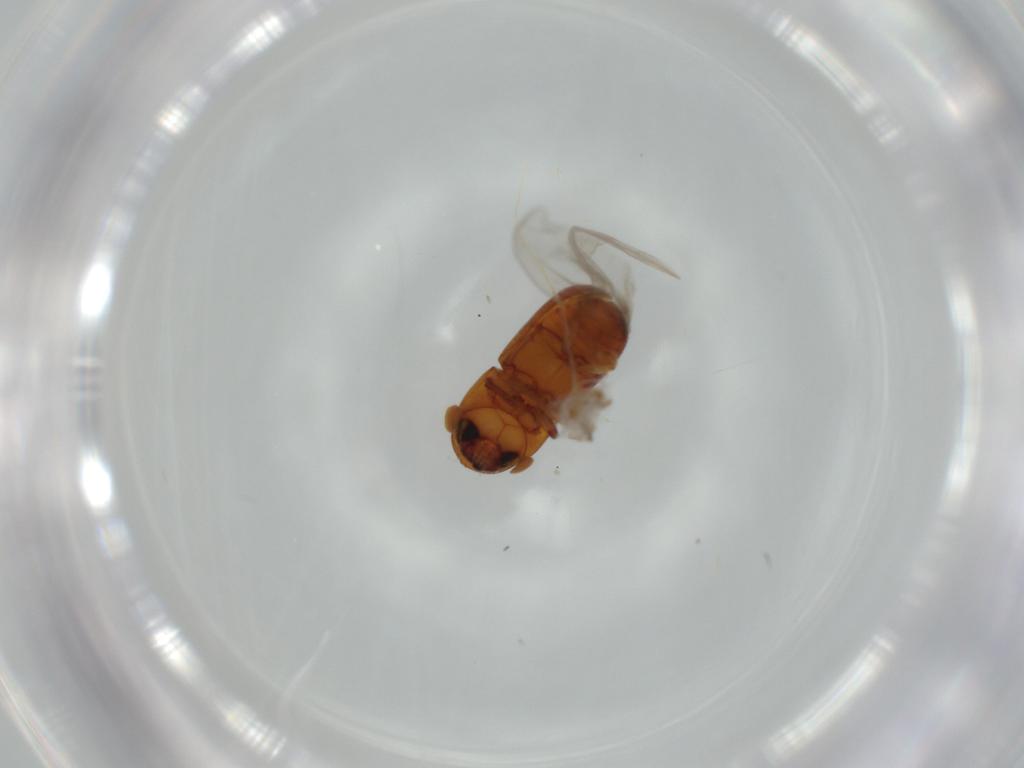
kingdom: Animalia
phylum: Arthropoda
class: Insecta
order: Coleoptera
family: Curculionidae
